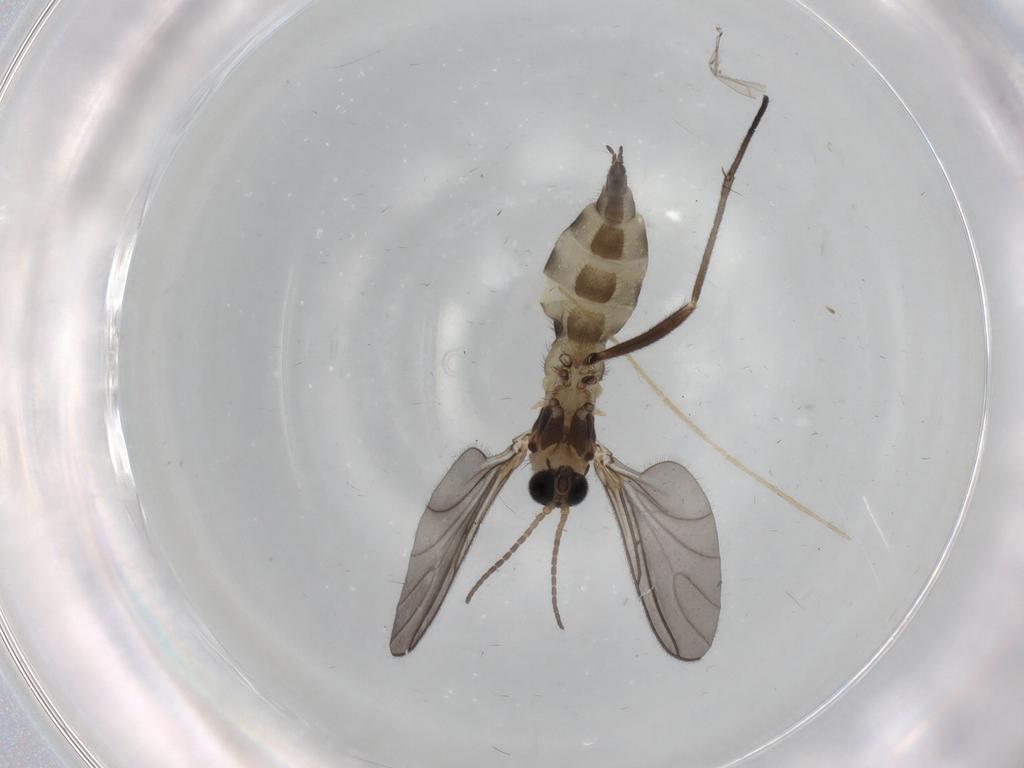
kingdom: Animalia
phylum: Arthropoda
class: Insecta
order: Diptera
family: Sciaridae
